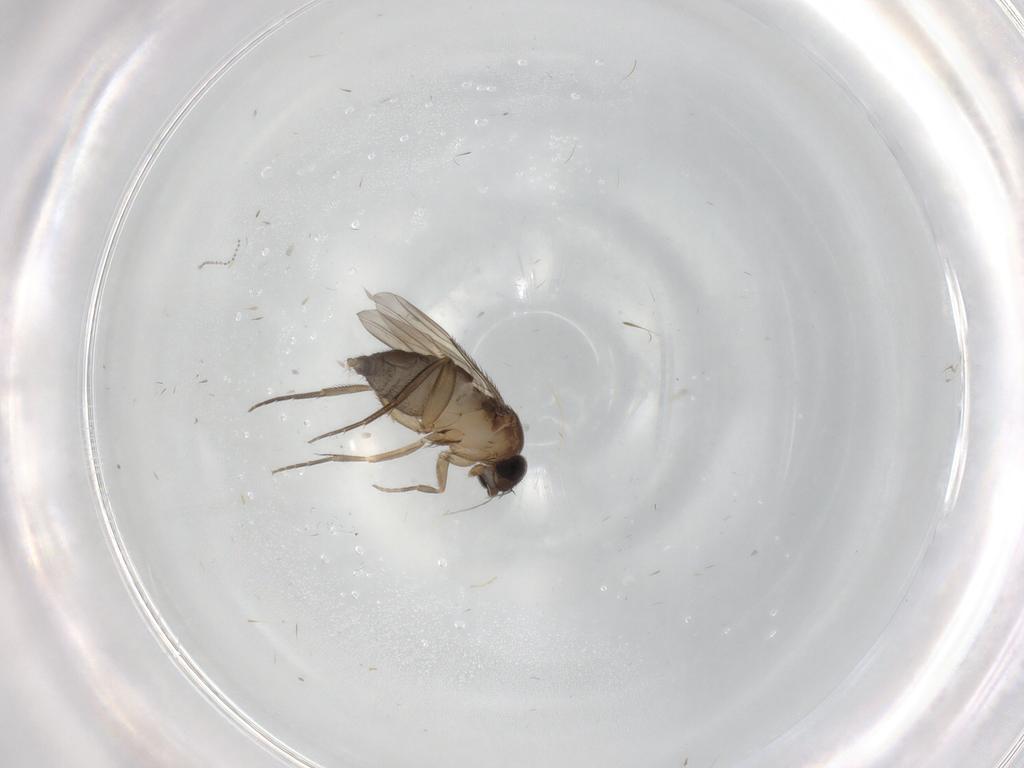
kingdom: Animalia
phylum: Arthropoda
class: Insecta
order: Diptera
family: Phoridae
